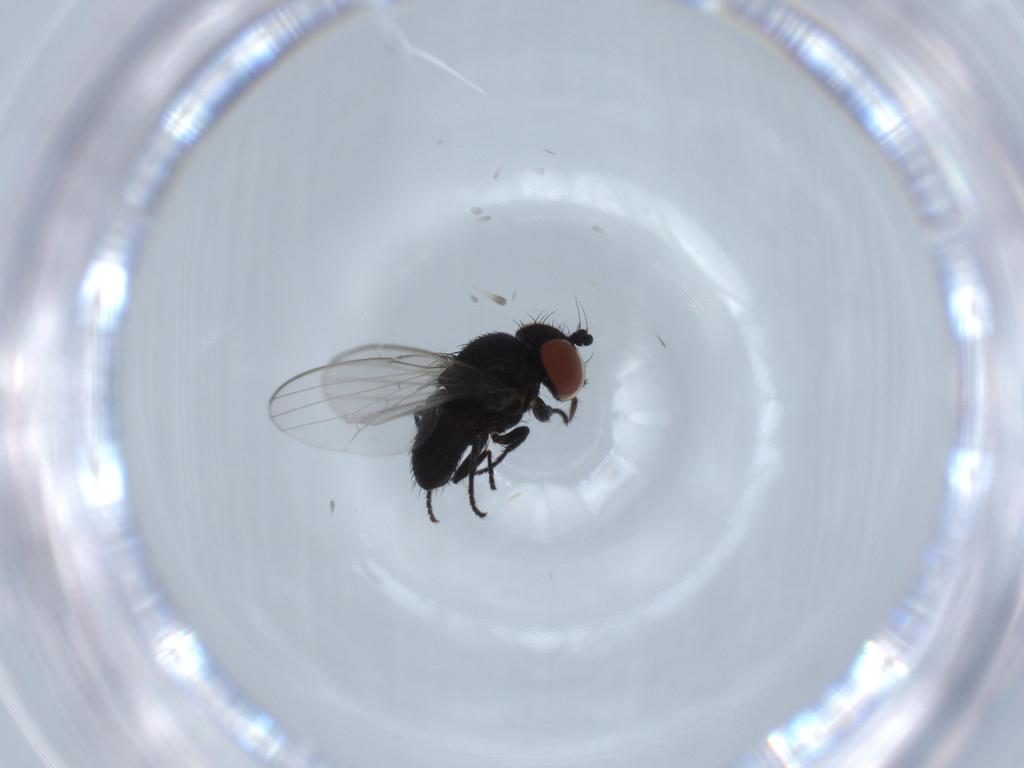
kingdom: Animalia
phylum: Arthropoda
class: Insecta
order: Diptera
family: Milichiidae
